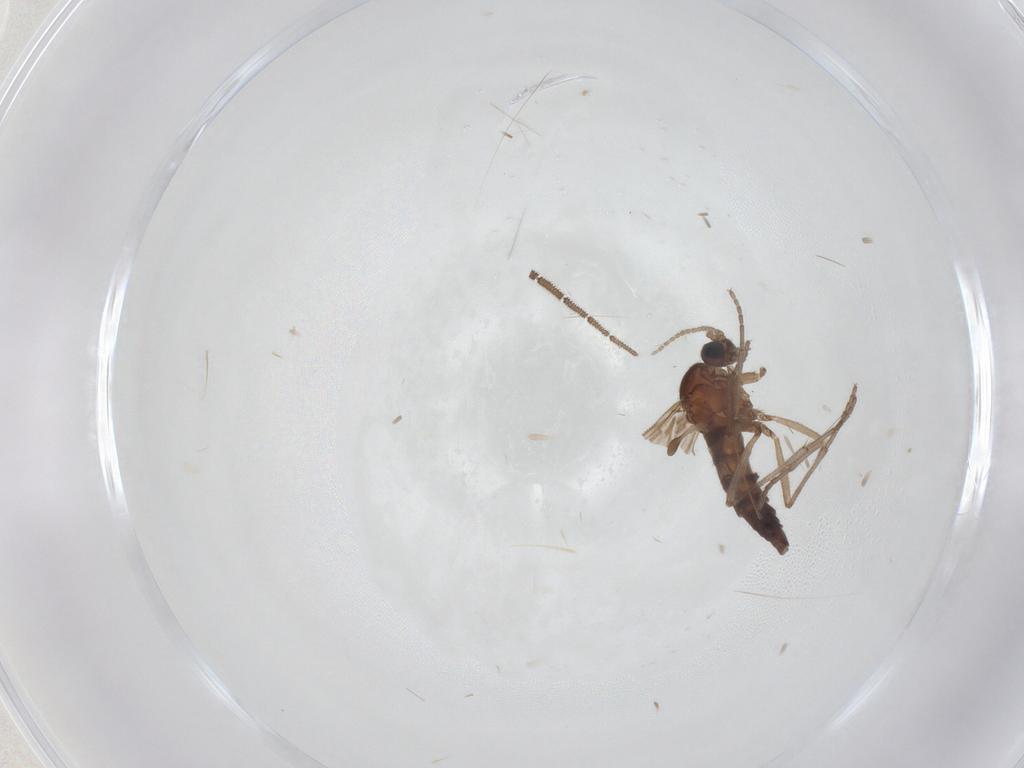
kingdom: Animalia
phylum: Arthropoda
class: Insecta
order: Diptera
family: Sciaridae
